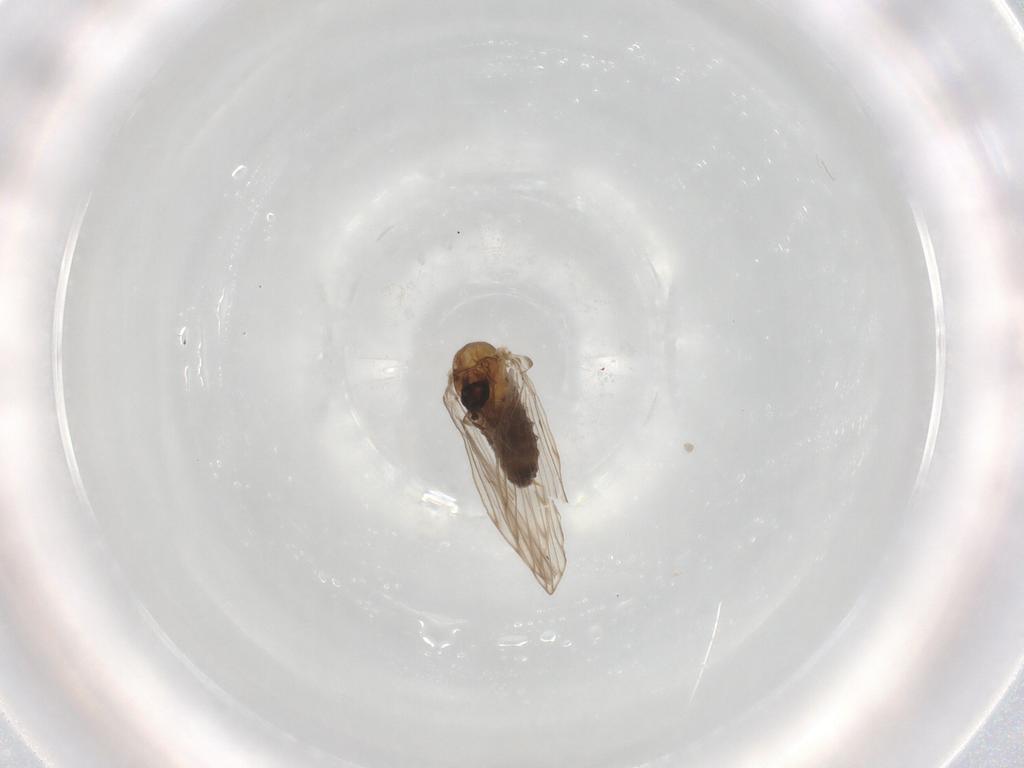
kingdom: Animalia
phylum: Arthropoda
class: Insecta
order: Diptera
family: Psychodidae
